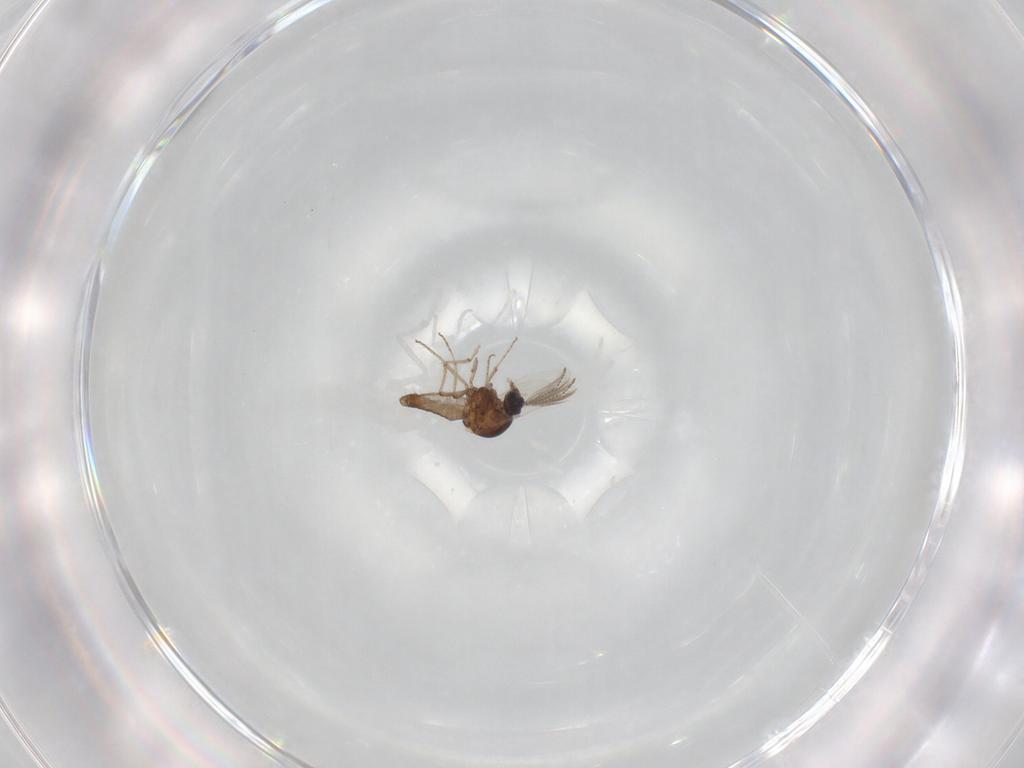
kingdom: Animalia
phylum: Arthropoda
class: Insecta
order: Diptera
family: Ceratopogonidae
